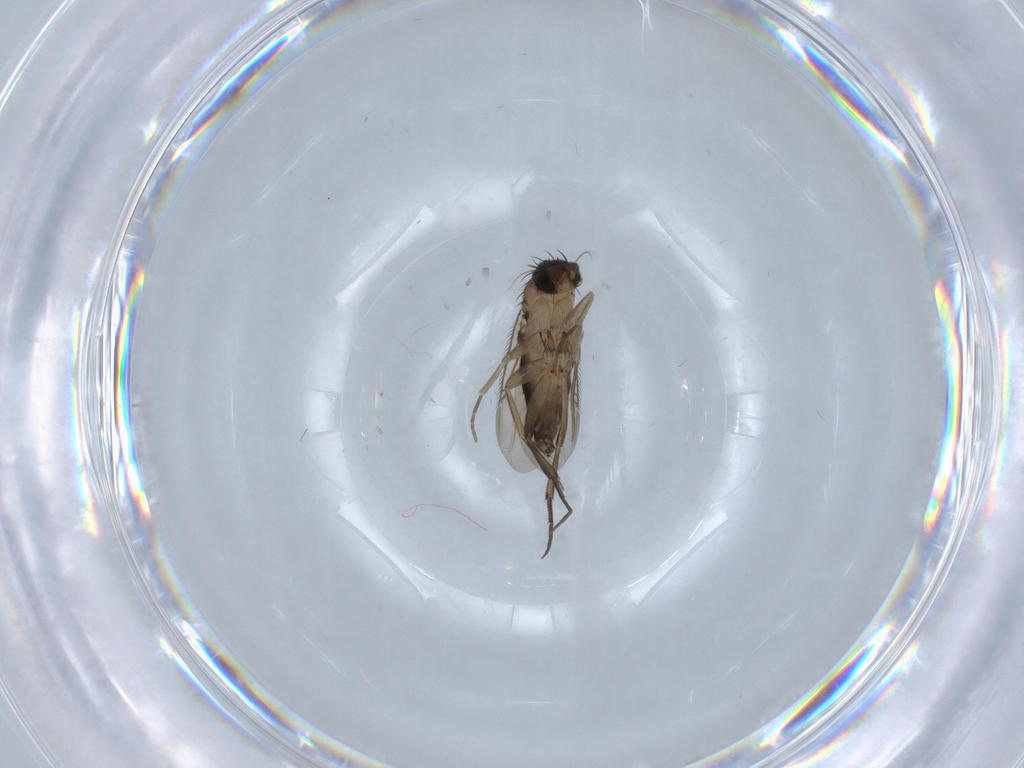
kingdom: Animalia
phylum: Arthropoda
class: Insecta
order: Diptera
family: Phoridae
